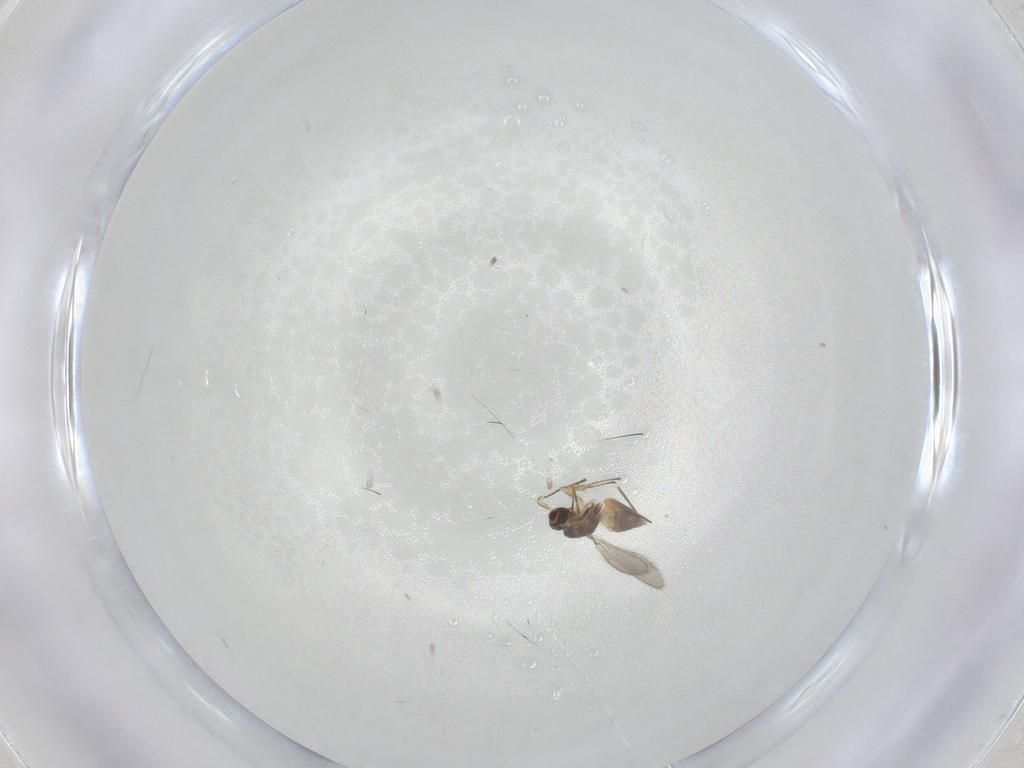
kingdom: Animalia
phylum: Arthropoda
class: Insecta
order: Hymenoptera
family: Mymaridae
